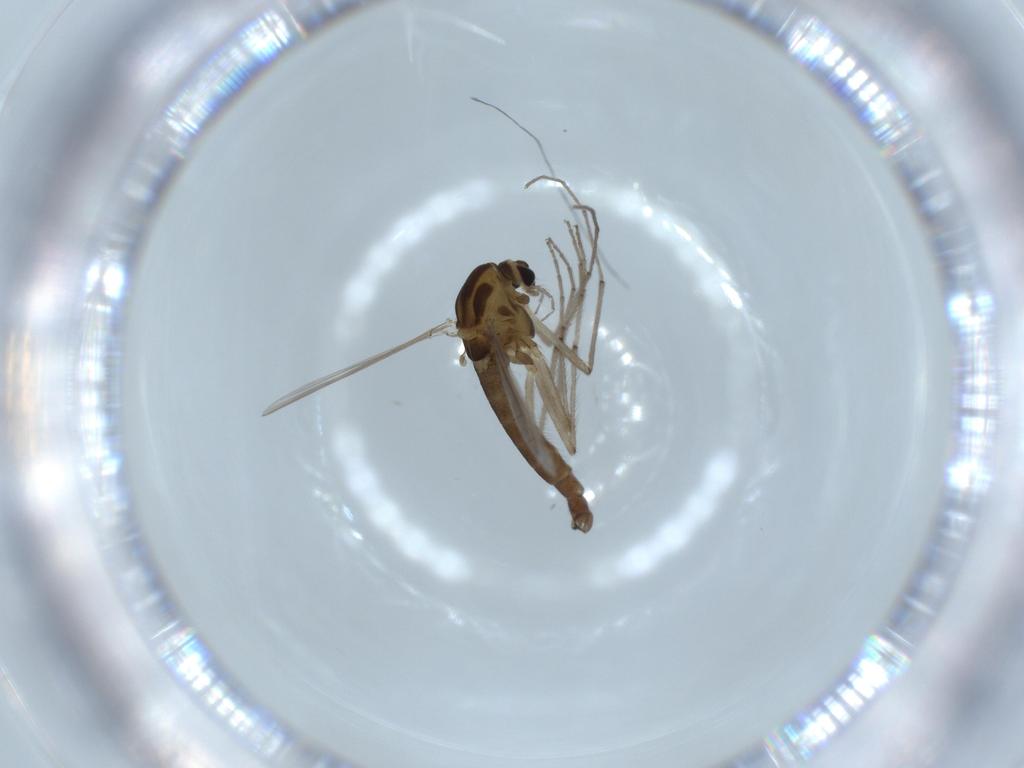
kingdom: Animalia
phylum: Arthropoda
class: Insecta
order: Diptera
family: Chironomidae
